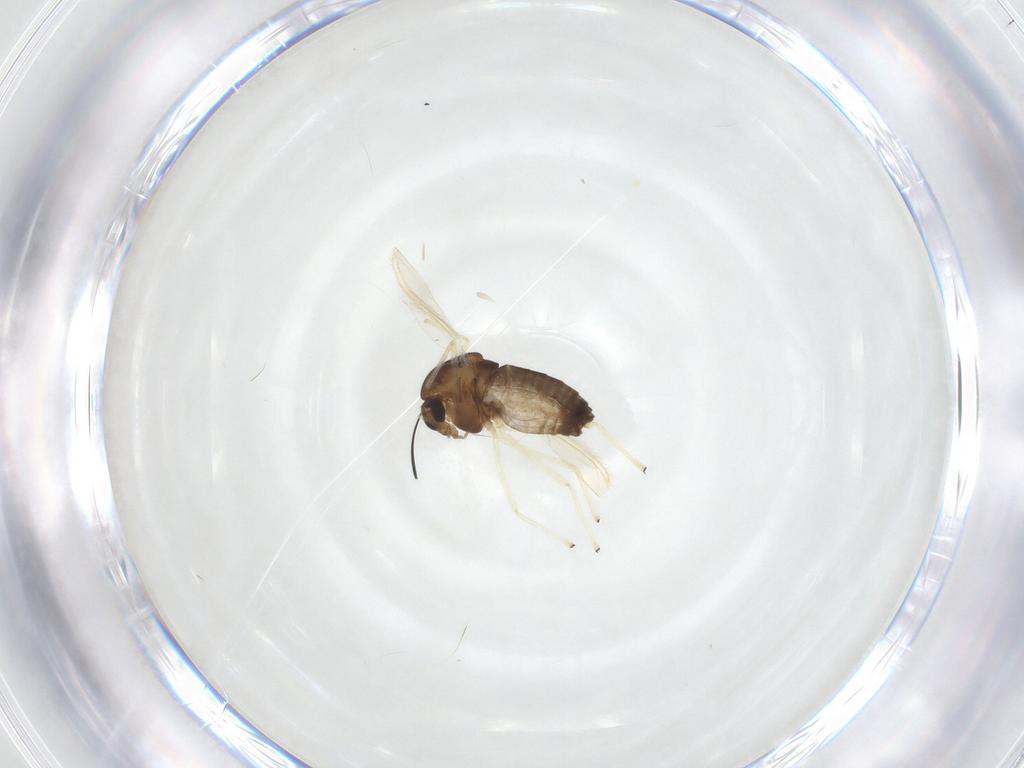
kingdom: Animalia
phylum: Arthropoda
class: Insecta
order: Diptera
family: Chironomidae
